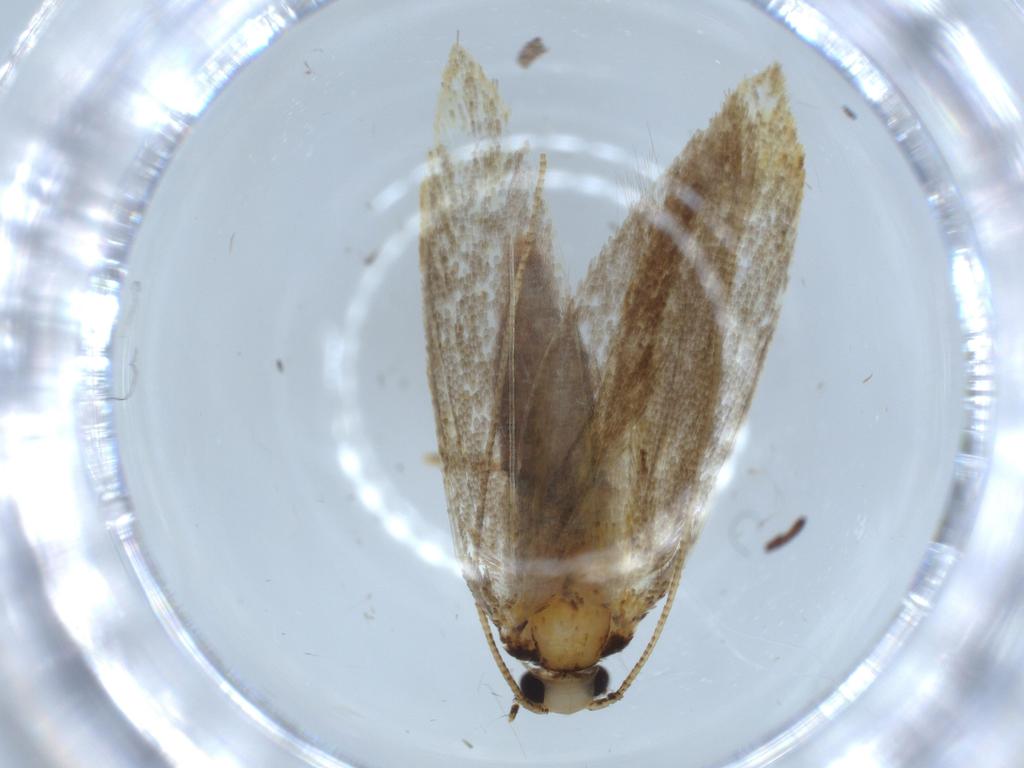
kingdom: Animalia
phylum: Arthropoda
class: Insecta
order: Lepidoptera
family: Tineidae
